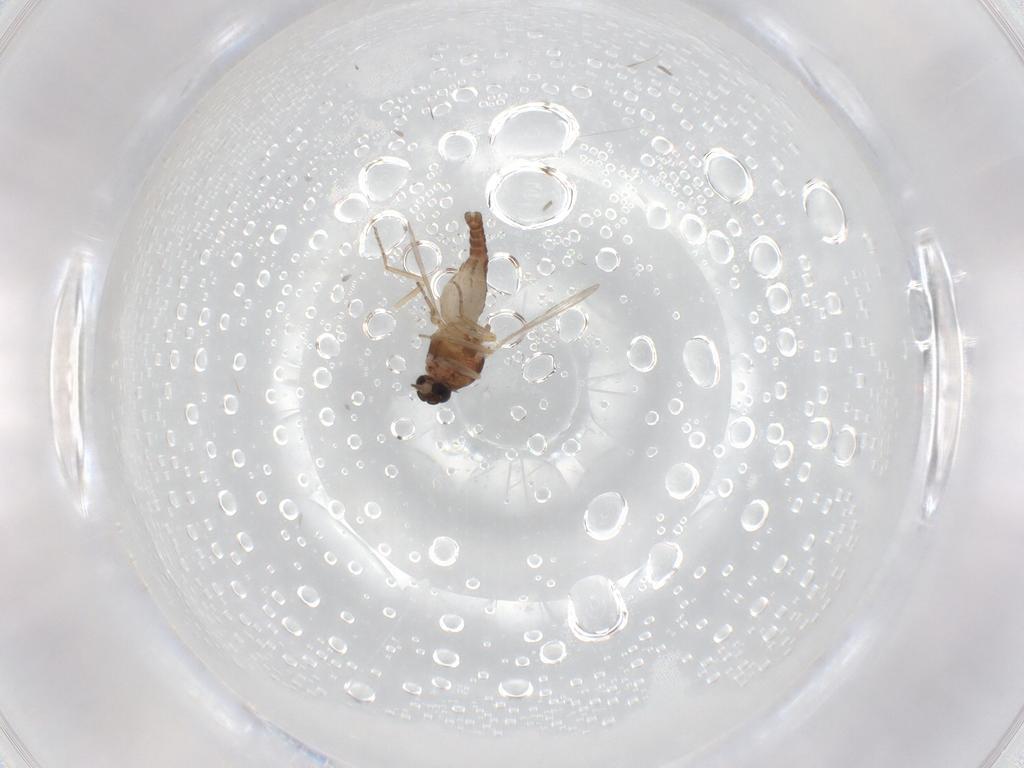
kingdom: Animalia
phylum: Arthropoda
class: Insecta
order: Diptera
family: Ceratopogonidae
